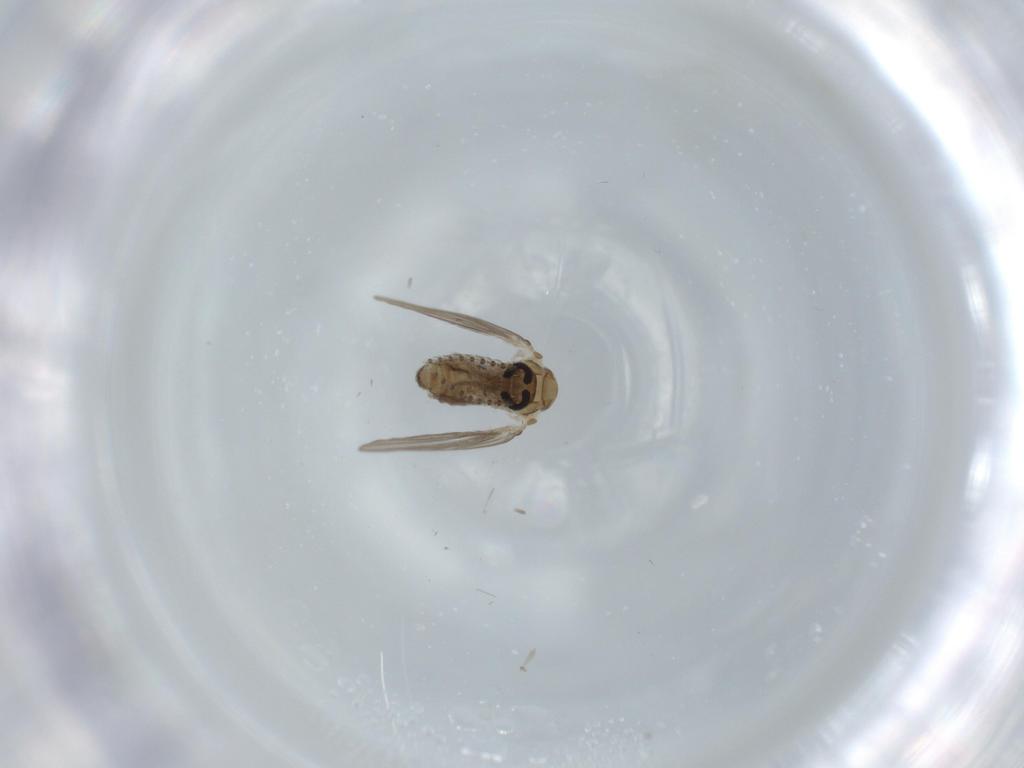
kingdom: Animalia
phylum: Arthropoda
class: Insecta
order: Diptera
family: Psychodidae
